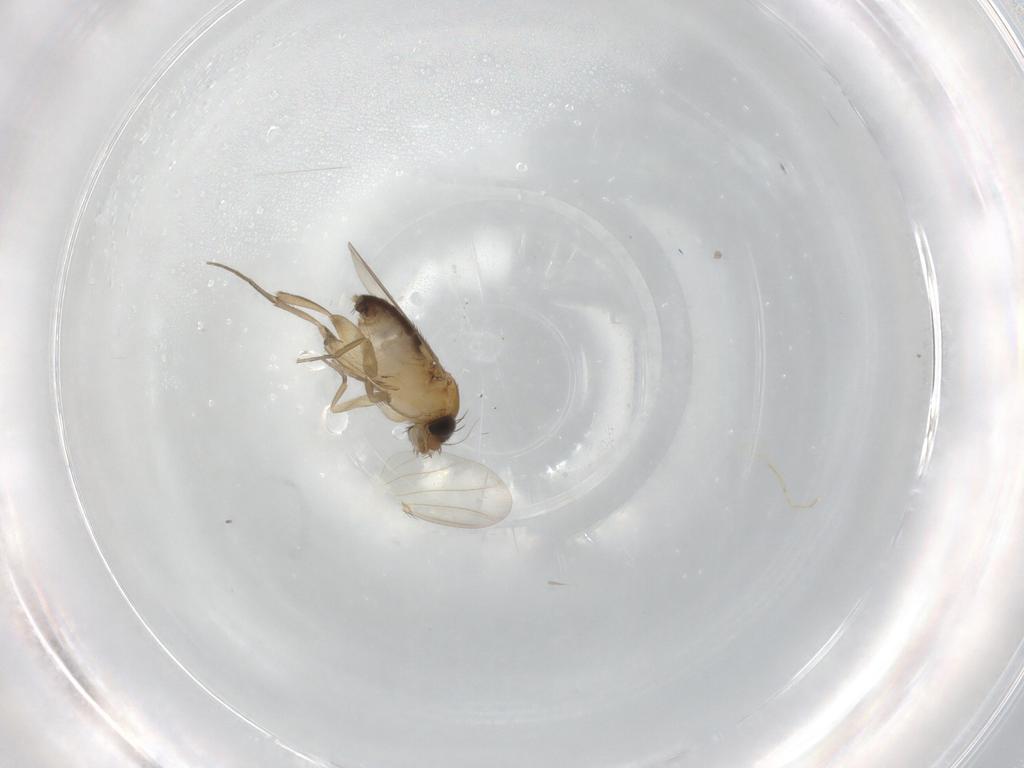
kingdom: Animalia
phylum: Arthropoda
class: Insecta
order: Diptera
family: Phoridae
